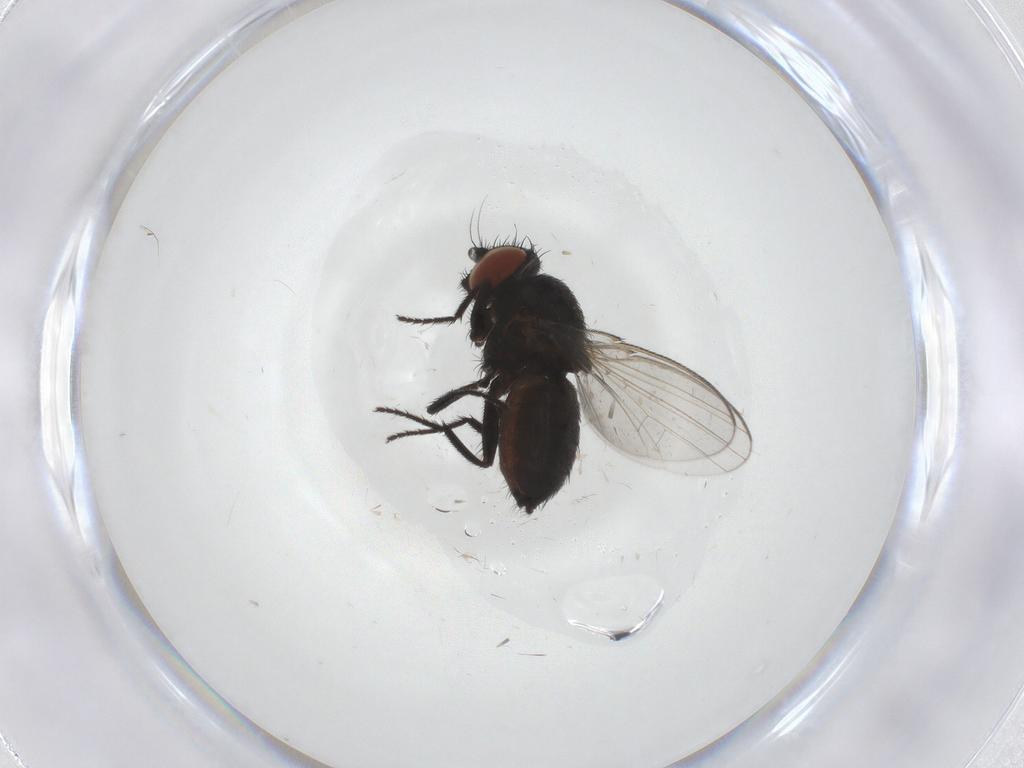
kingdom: Animalia
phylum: Arthropoda
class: Insecta
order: Diptera
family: Milichiidae
